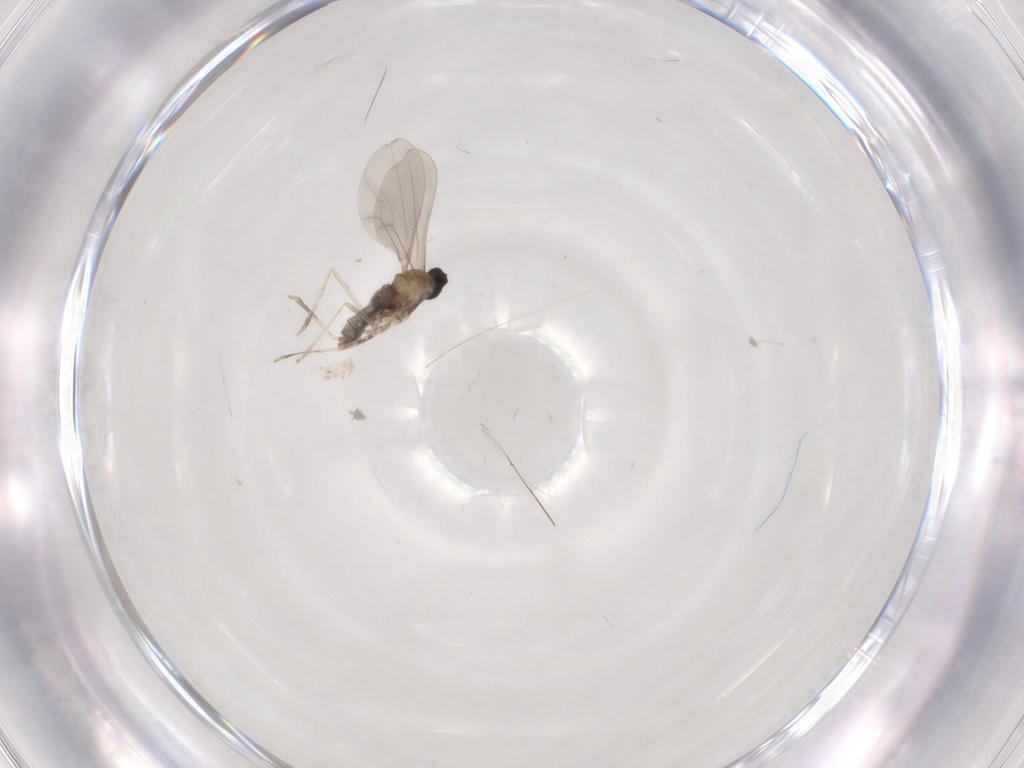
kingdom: Animalia
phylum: Arthropoda
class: Insecta
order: Diptera
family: Cecidomyiidae
